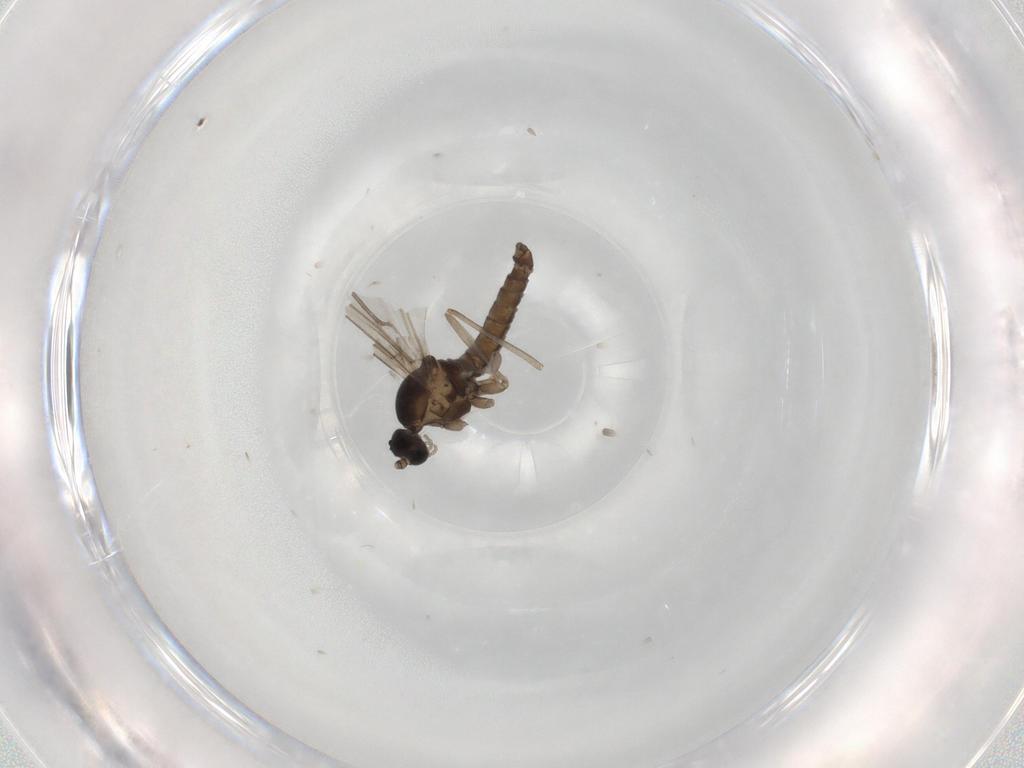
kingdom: Animalia
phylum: Arthropoda
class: Insecta
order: Diptera
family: Cecidomyiidae
